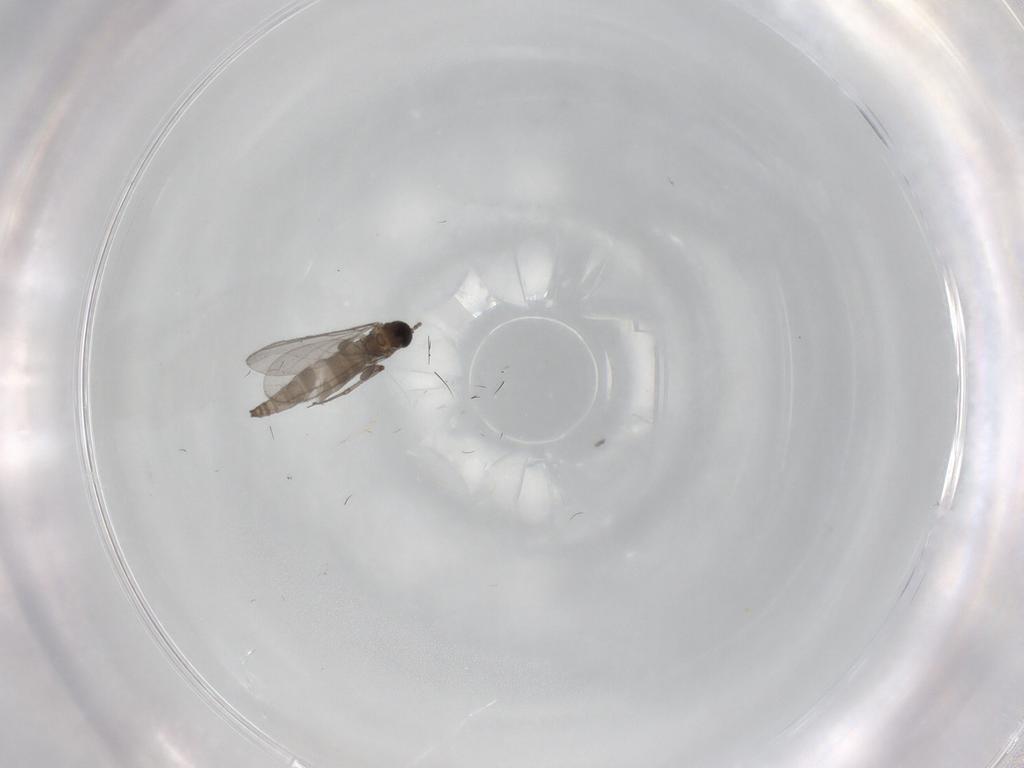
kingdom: Animalia
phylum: Arthropoda
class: Insecta
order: Diptera
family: Sciaridae
